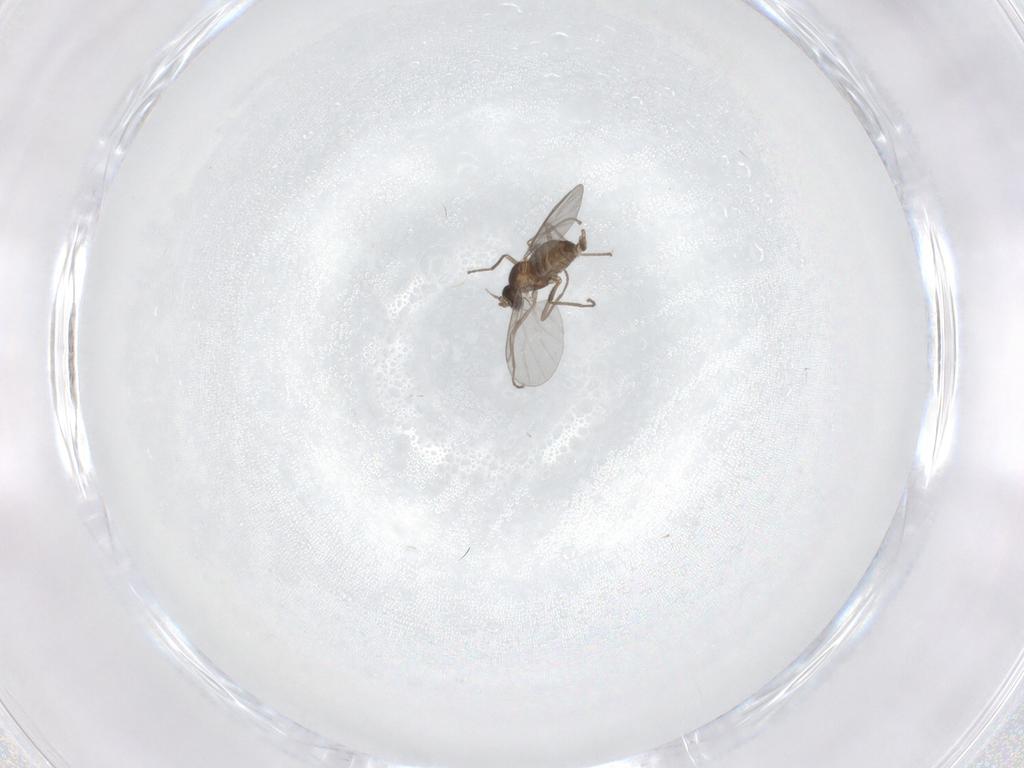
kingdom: Animalia
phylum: Arthropoda
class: Insecta
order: Diptera
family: Cecidomyiidae
